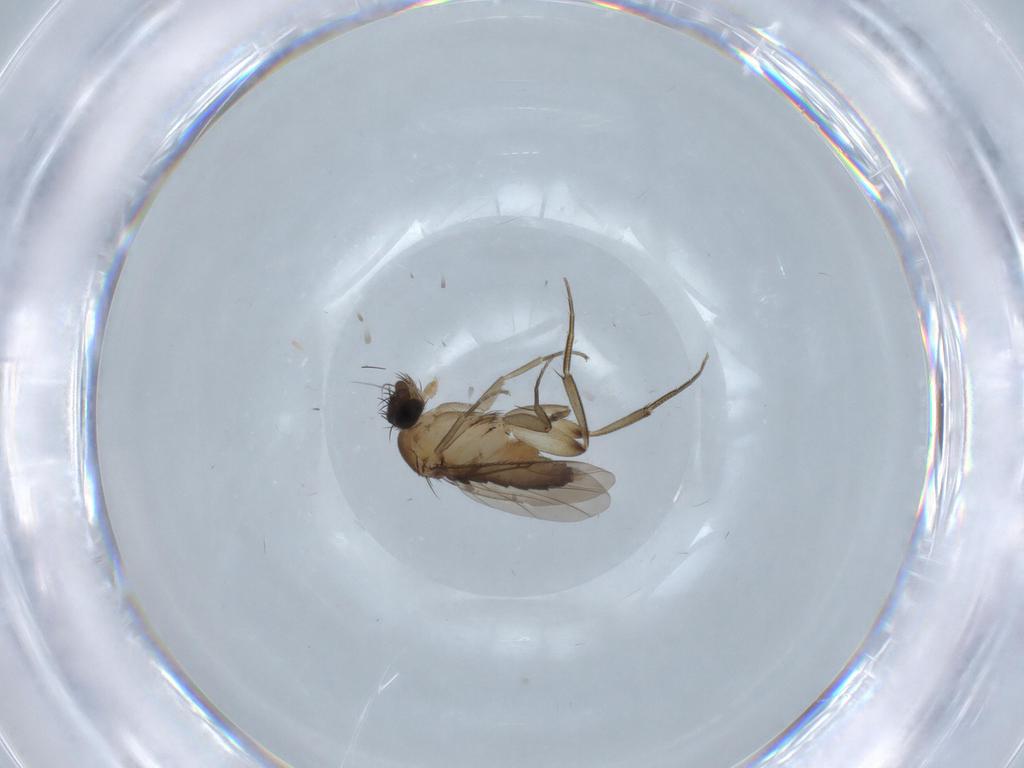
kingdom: Animalia
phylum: Arthropoda
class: Insecta
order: Diptera
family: Phoridae
